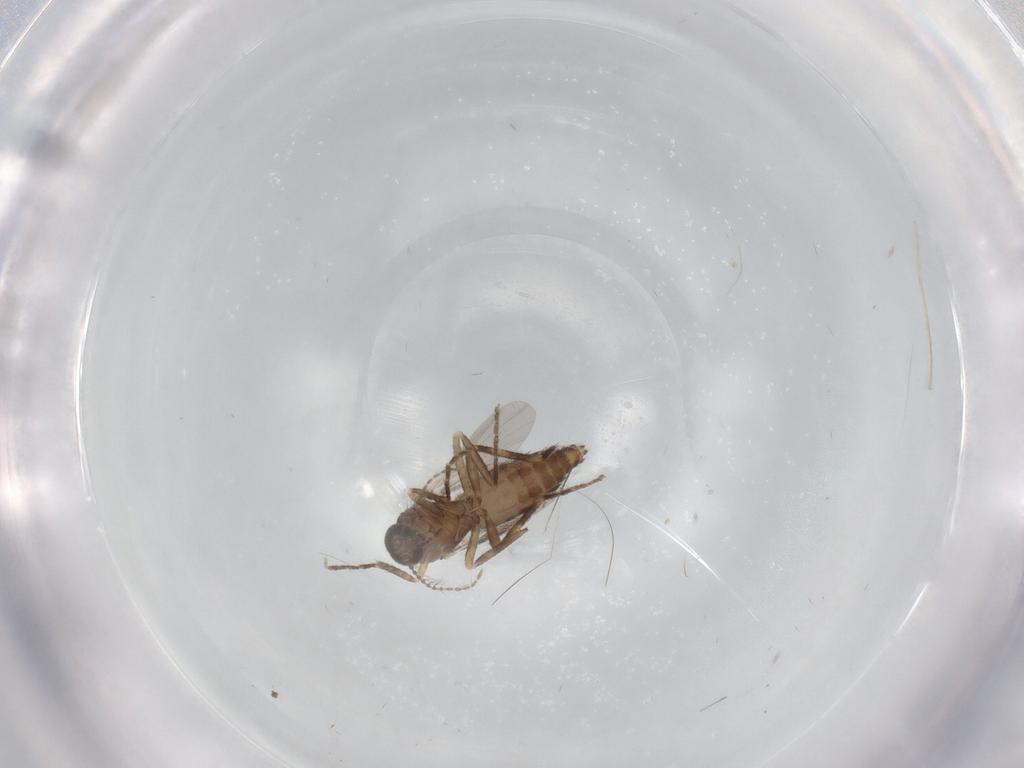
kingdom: Animalia
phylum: Arthropoda
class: Insecta
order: Diptera
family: Ceratopogonidae
